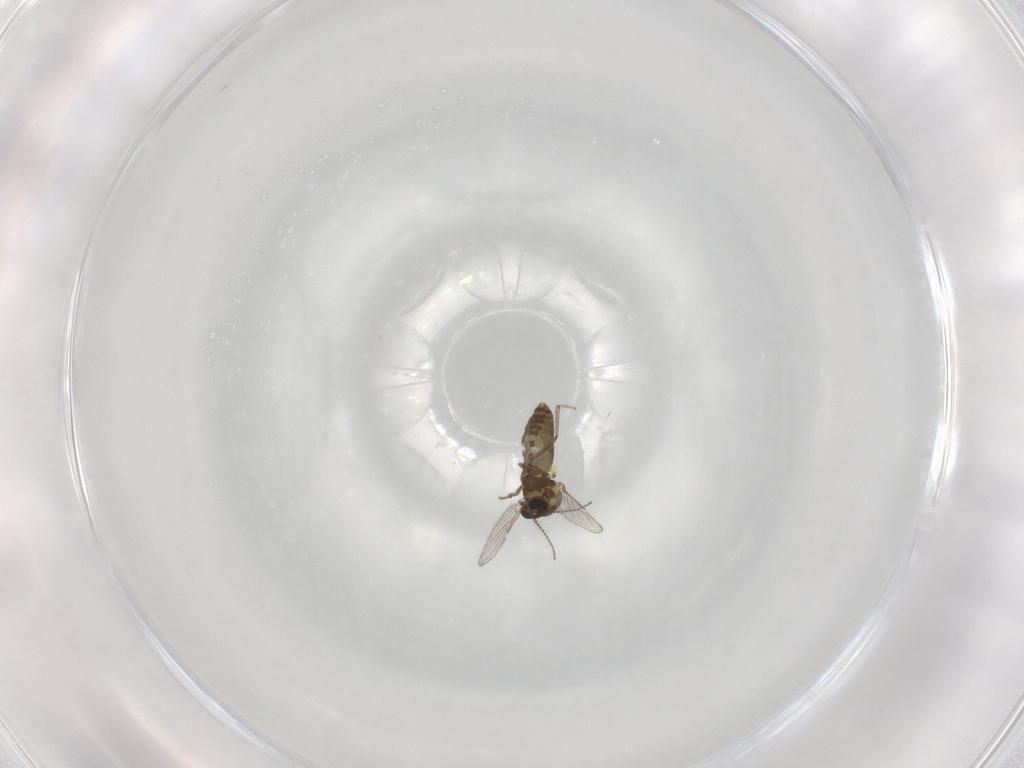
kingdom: Animalia
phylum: Arthropoda
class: Insecta
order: Diptera
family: Ceratopogonidae
